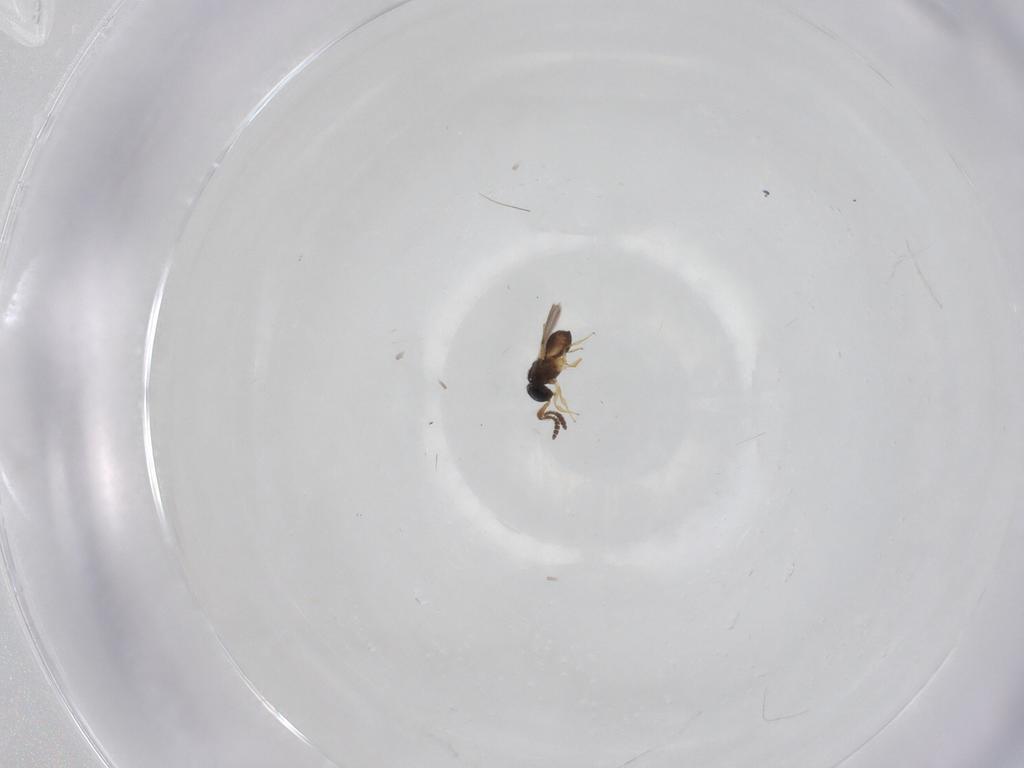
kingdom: Animalia
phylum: Arthropoda
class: Insecta
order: Hymenoptera
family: Scelionidae
